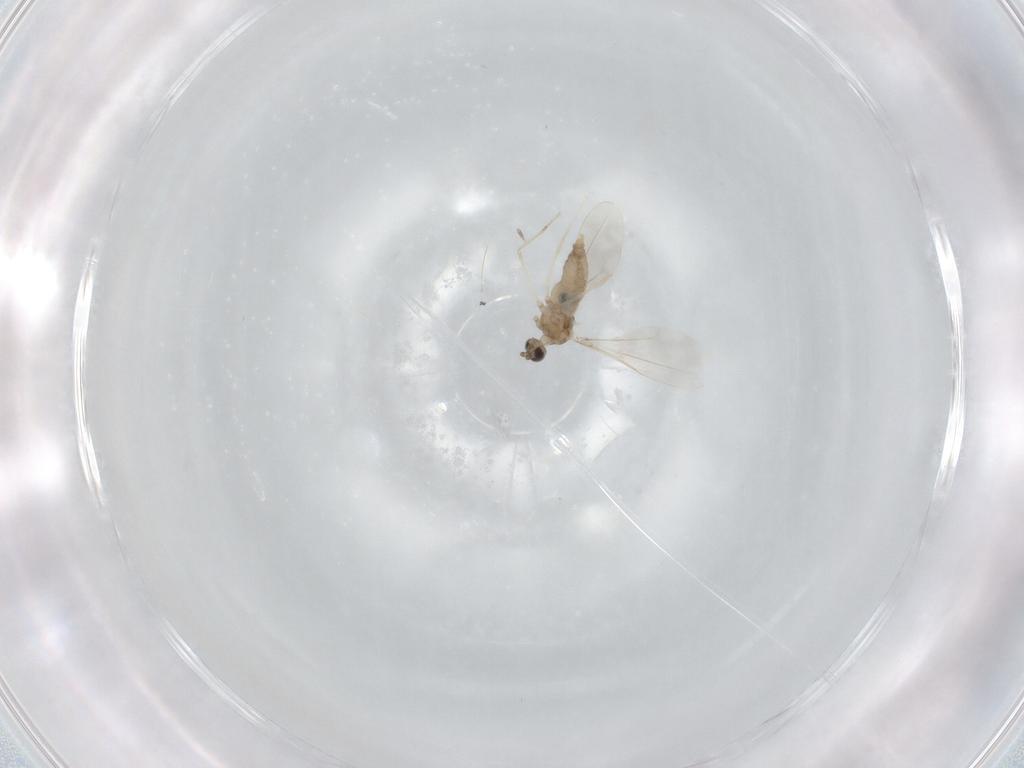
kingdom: Animalia
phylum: Arthropoda
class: Insecta
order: Diptera
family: Cecidomyiidae
